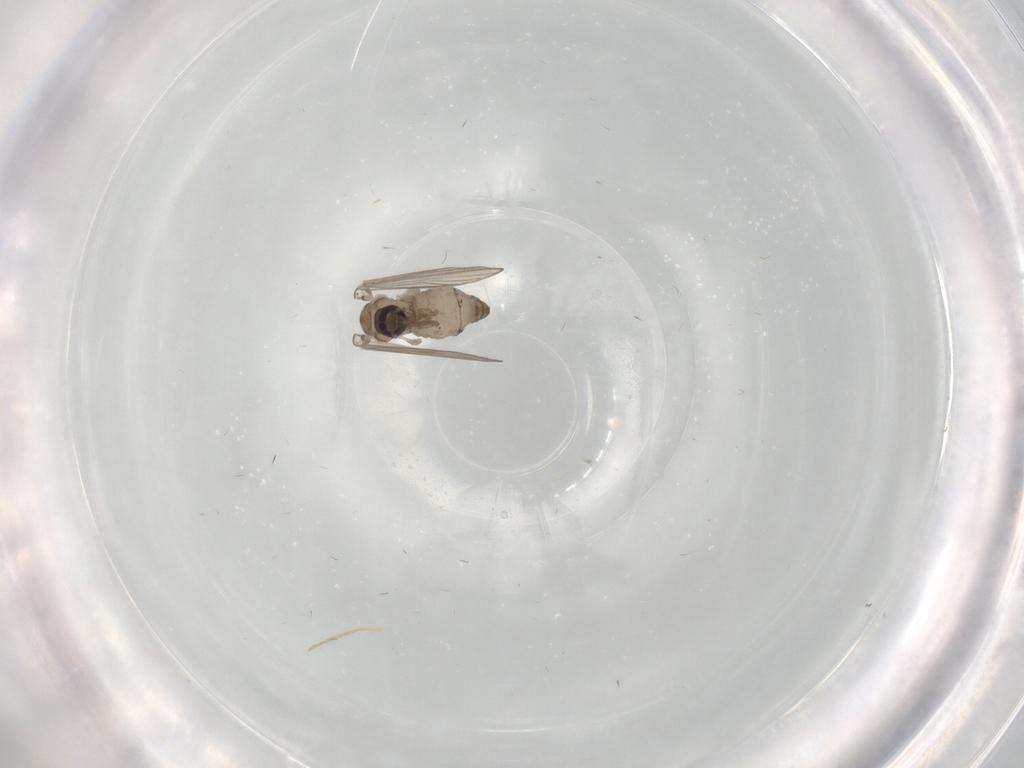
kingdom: Animalia
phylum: Arthropoda
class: Insecta
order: Diptera
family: Psychodidae
